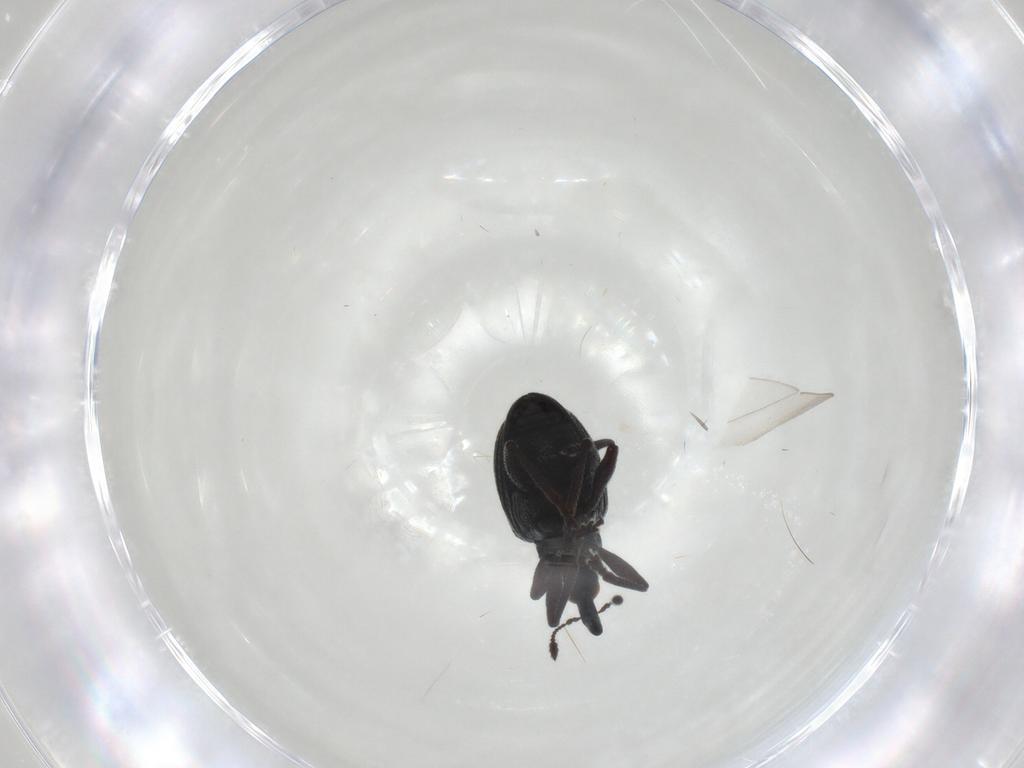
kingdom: Animalia
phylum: Arthropoda
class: Insecta
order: Coleoptera
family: Brentidae
